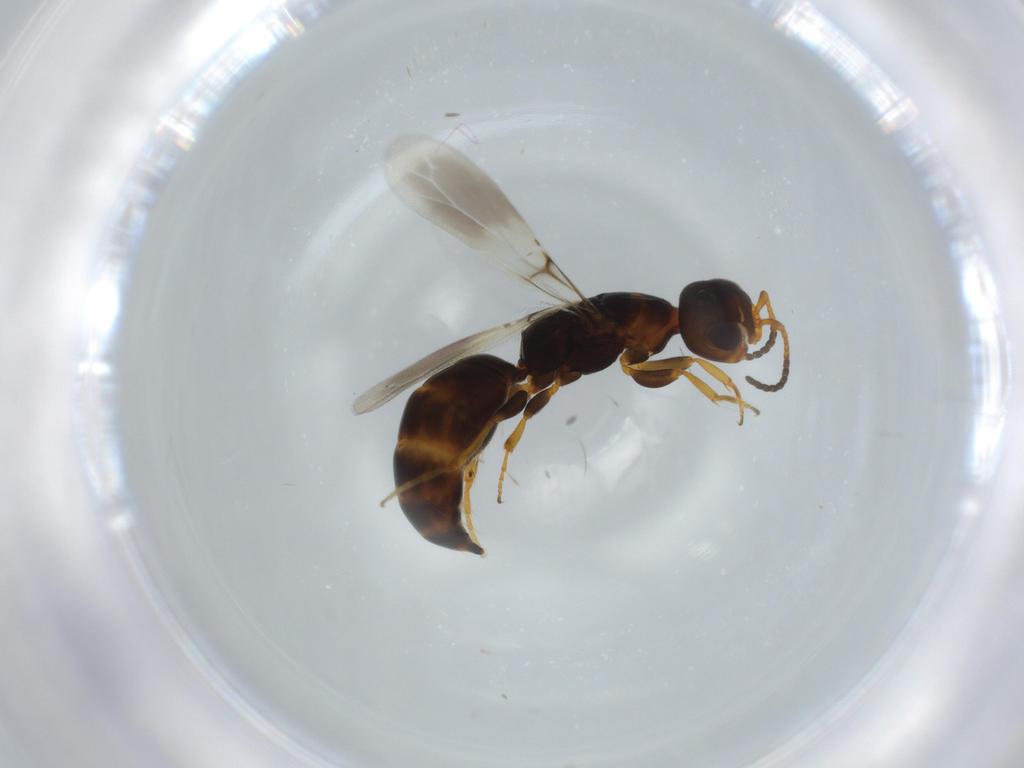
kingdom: Animalia
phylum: Arthropoda
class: Insecta
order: Hymenoptera
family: Bethylidae
